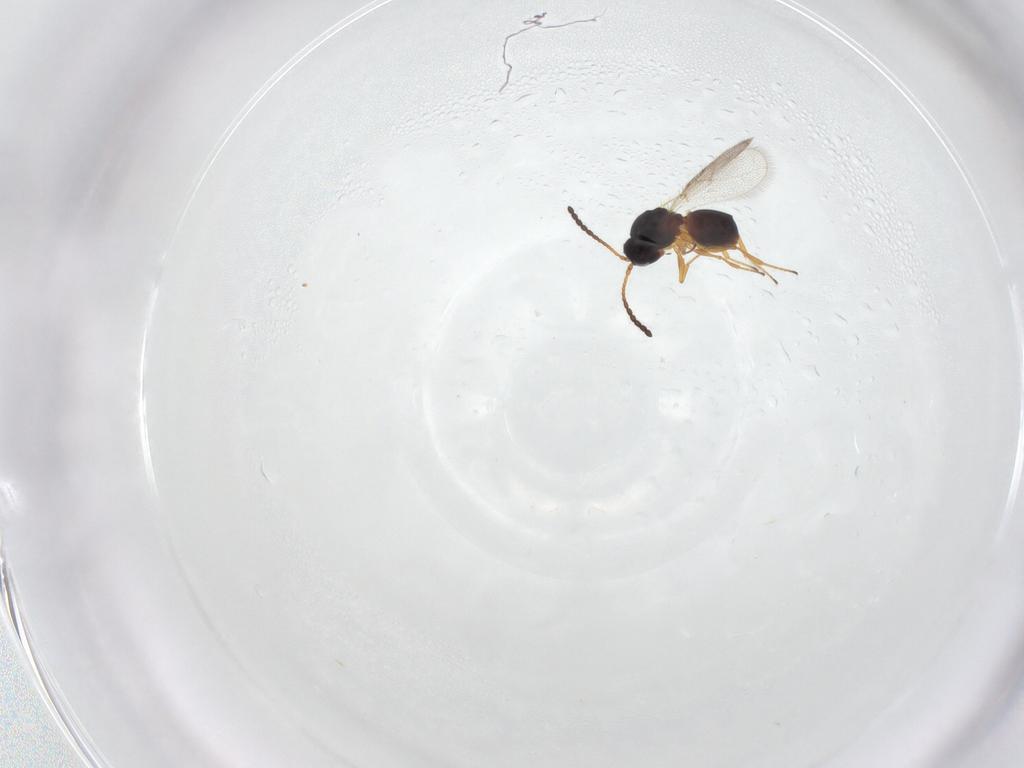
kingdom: Animalia
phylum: Arthropoda
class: Insecta
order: Hymenoptera
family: Figitidae
